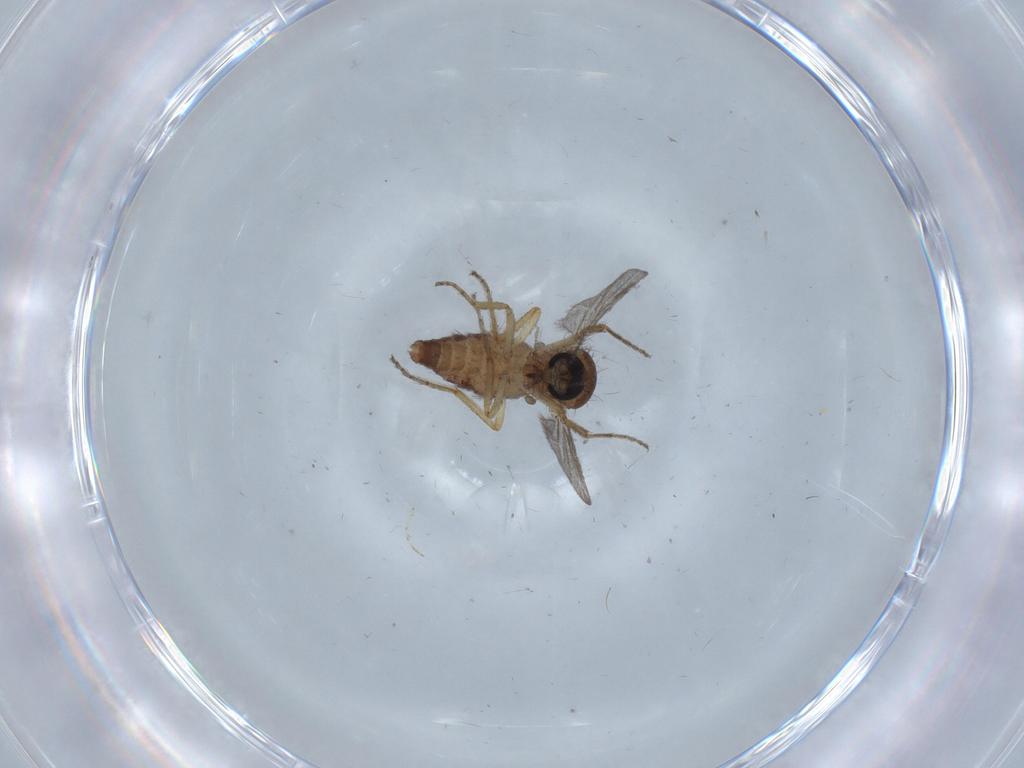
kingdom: Animalia
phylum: Arthropoda
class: Insecta
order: Diptera
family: Ceratopogonidae
